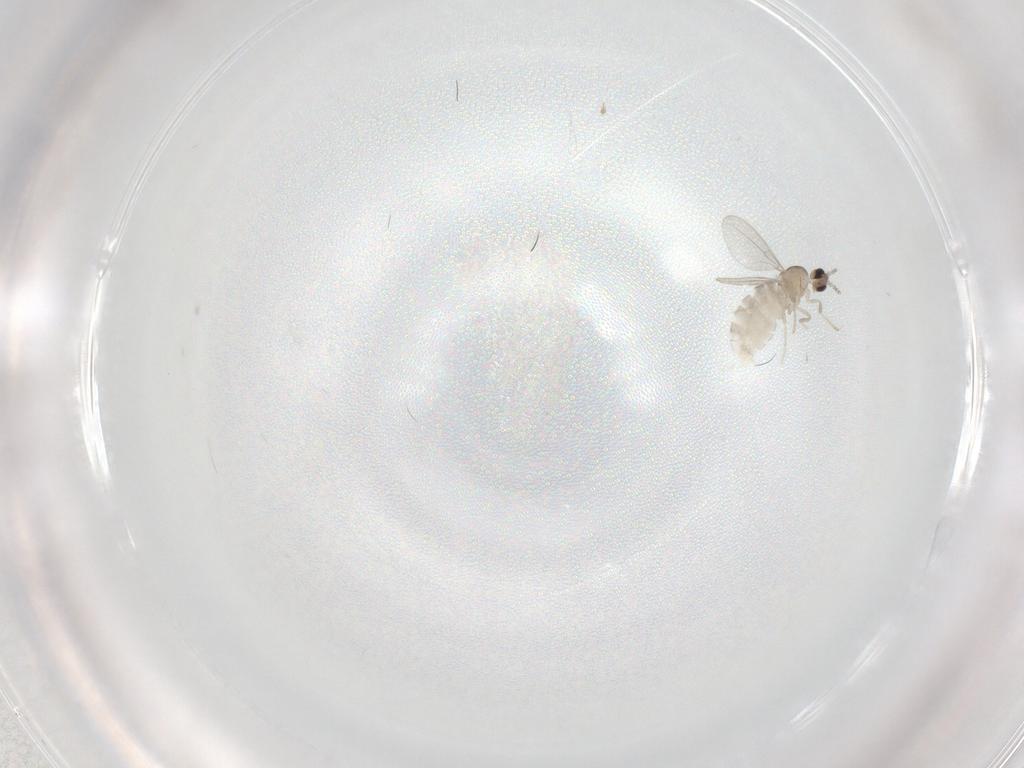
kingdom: Animalia
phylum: Arthropoda
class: Insecta
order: Diptera
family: Cecidomyiidae
